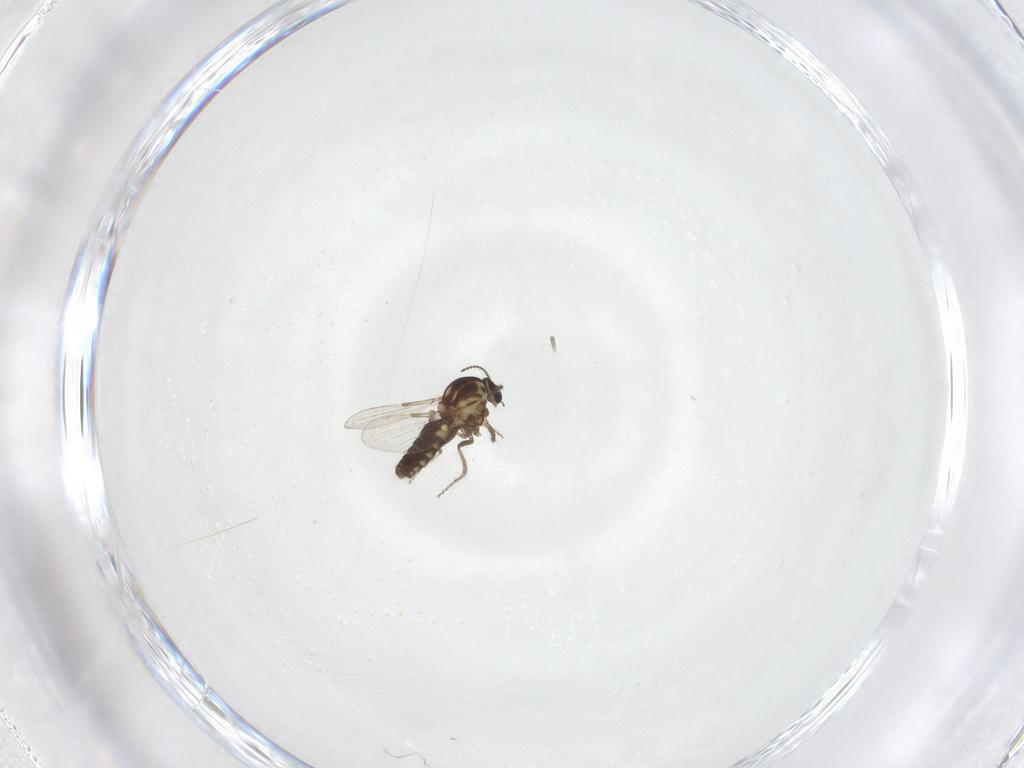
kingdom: Animalia
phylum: Arthropoda
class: Insecta
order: Diptera
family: Ceratopogonidae
